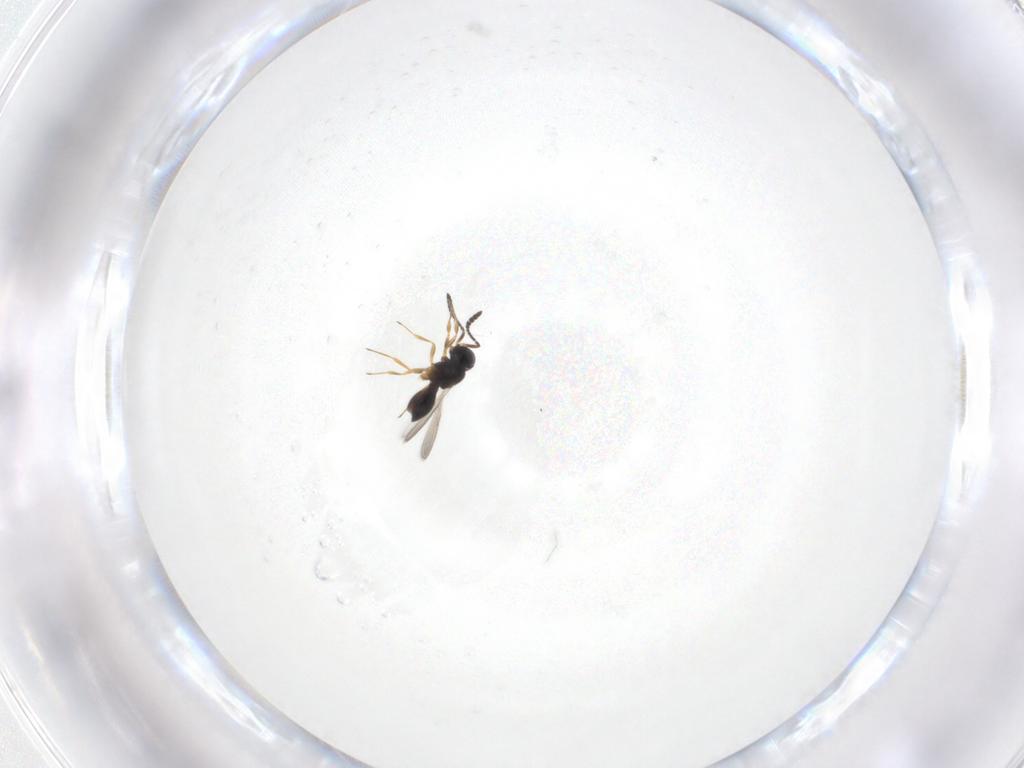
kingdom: Animalia
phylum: Arthropoda
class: Insecta
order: Hymenoptera
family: Scelionidae
